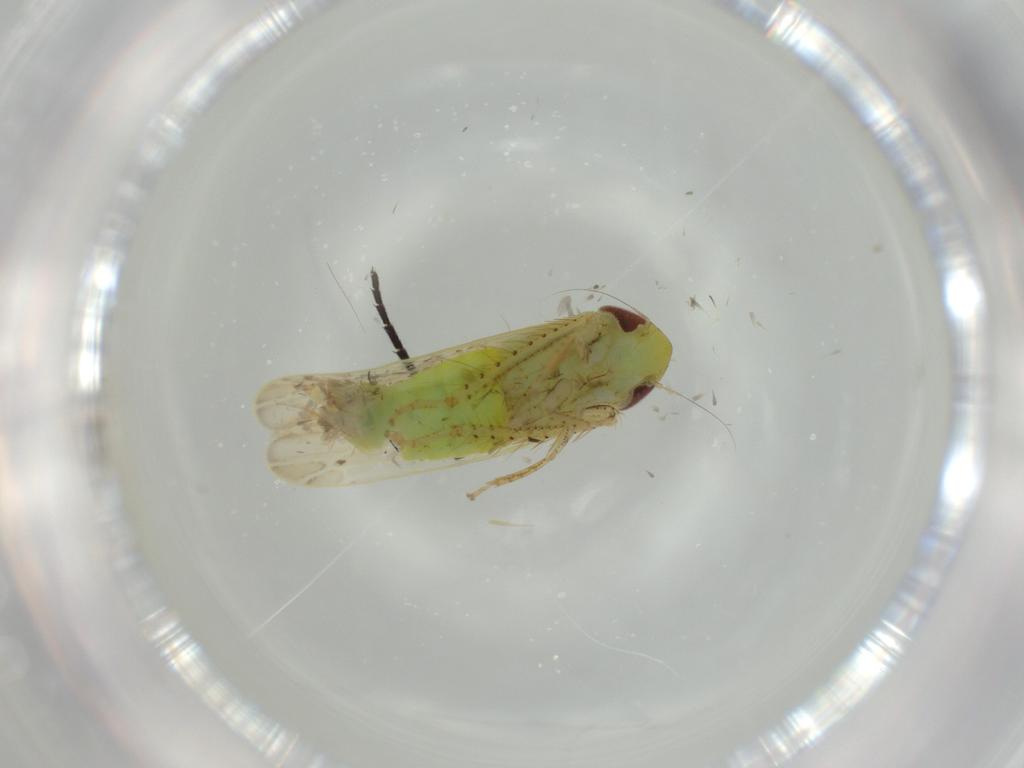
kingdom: Animalia
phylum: Arthropoda
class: Insecta
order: Hemiptera
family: Cicadellidae
